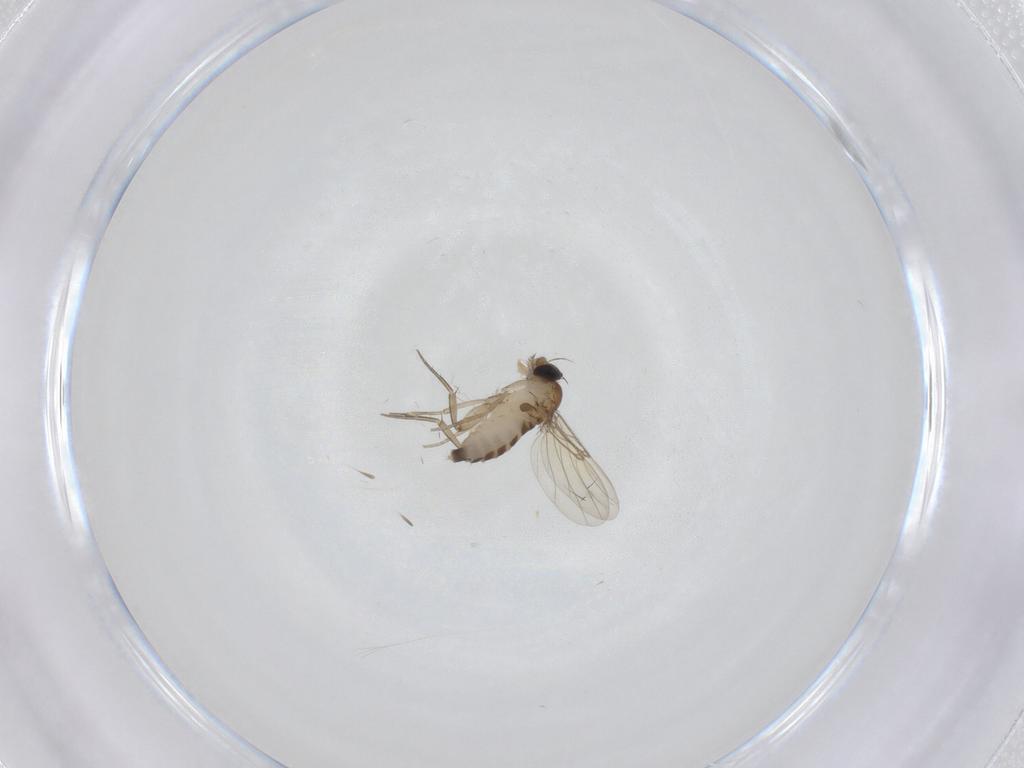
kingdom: Animalia
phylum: Arthropoda
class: Insecta
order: Diptera
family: Phoridae
